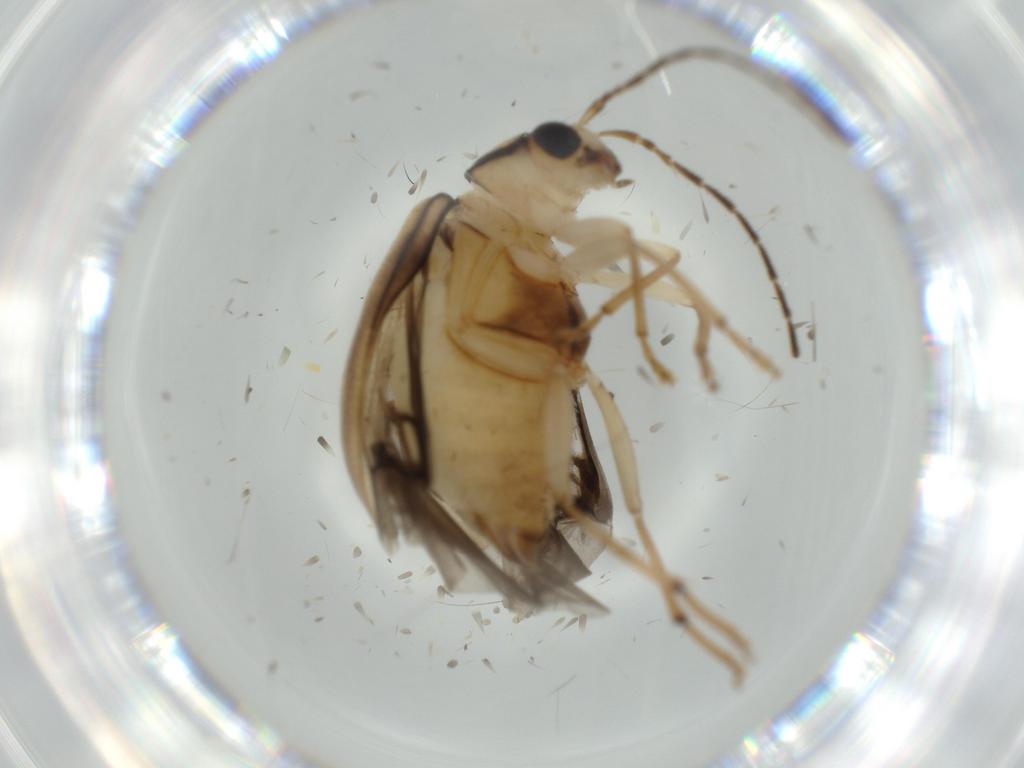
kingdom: Animalia
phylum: Arthropoda
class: Insecta
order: Coleoptera
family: Chrysomelidae
